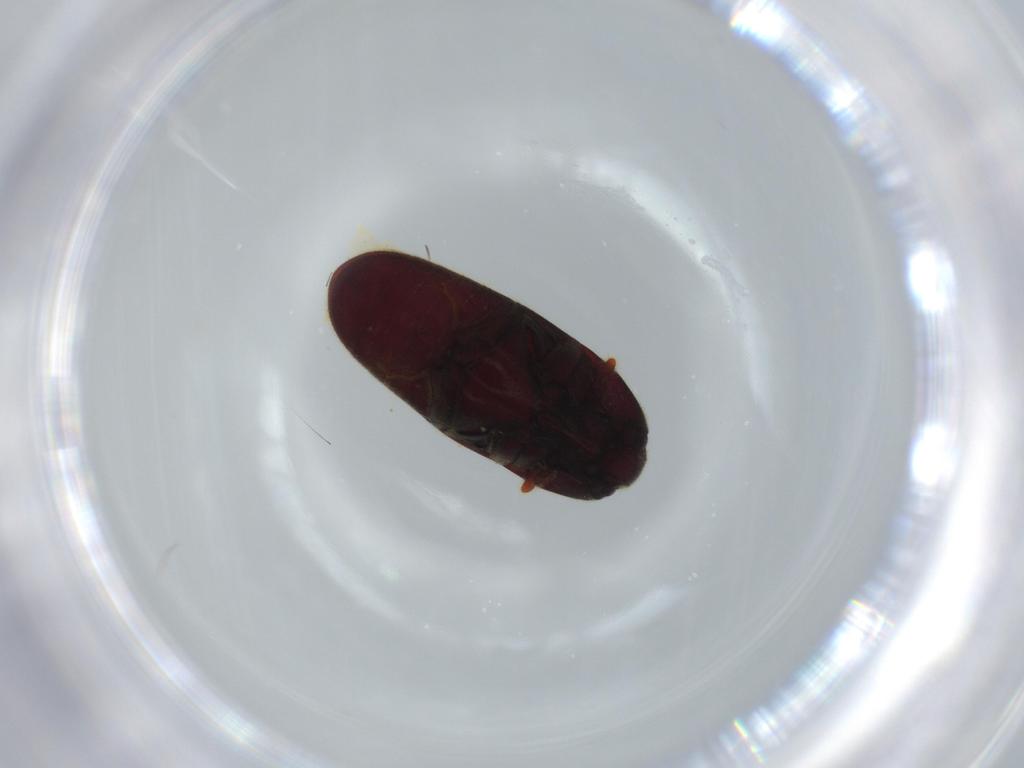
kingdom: Animalia
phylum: Arthropoda
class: Insecta
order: Coleoptera
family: Throscidae
